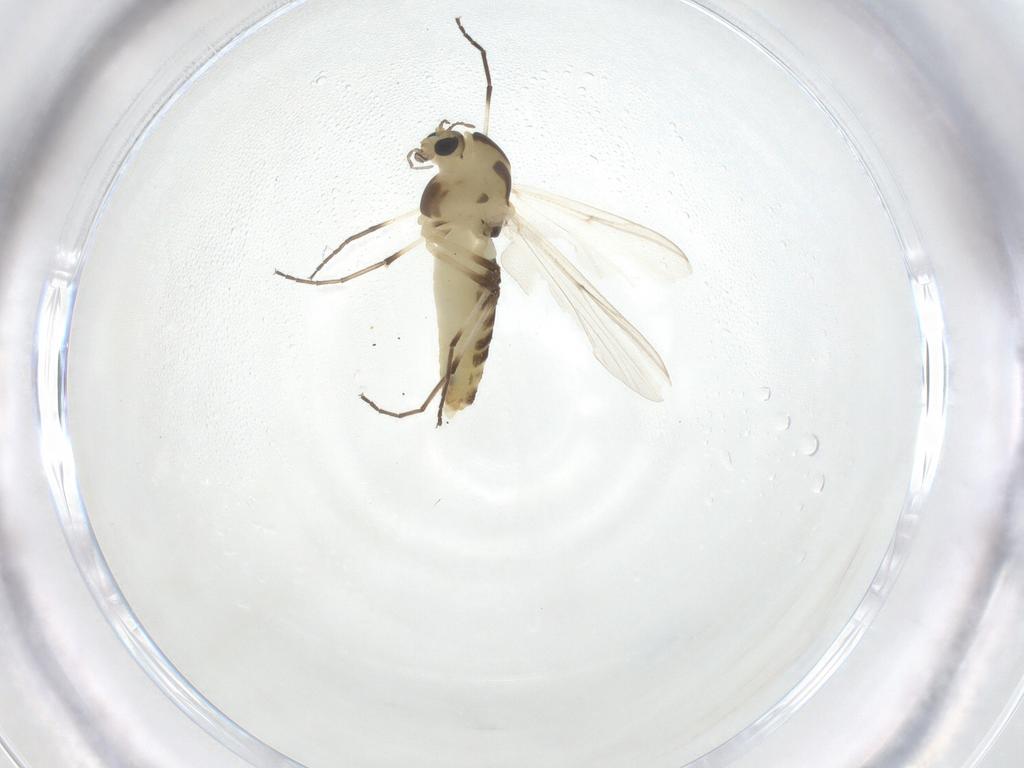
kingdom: Animalia
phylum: Arthropoda
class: Insecta
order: Diptera
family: Chironomidae
